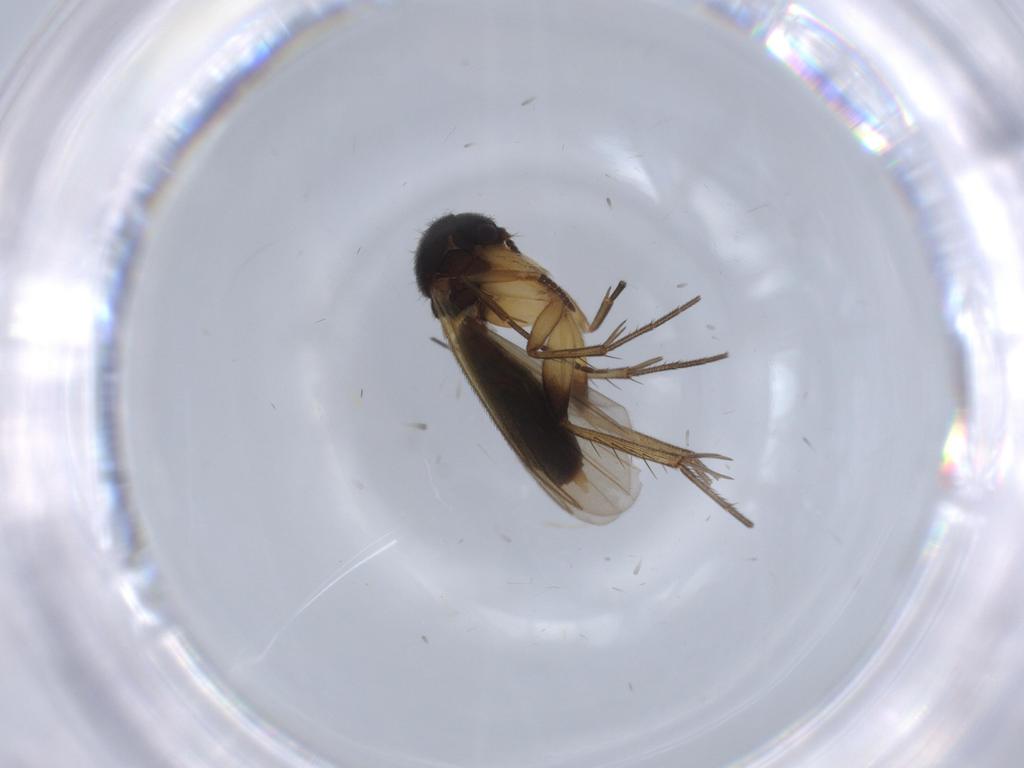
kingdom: Animalia
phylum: Arthropoda
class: Insecta
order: Diptera
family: Mycetophilidae
